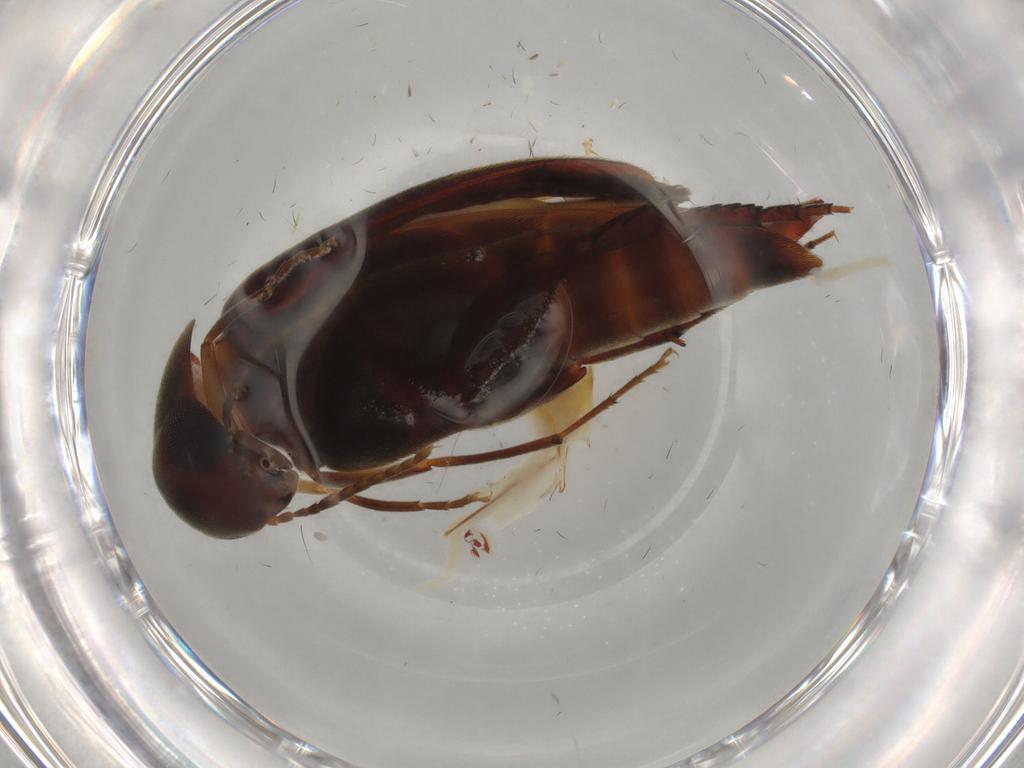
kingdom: Animalia
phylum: Arthropoda
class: Insecta
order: Coleoptera
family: Mordellidae
